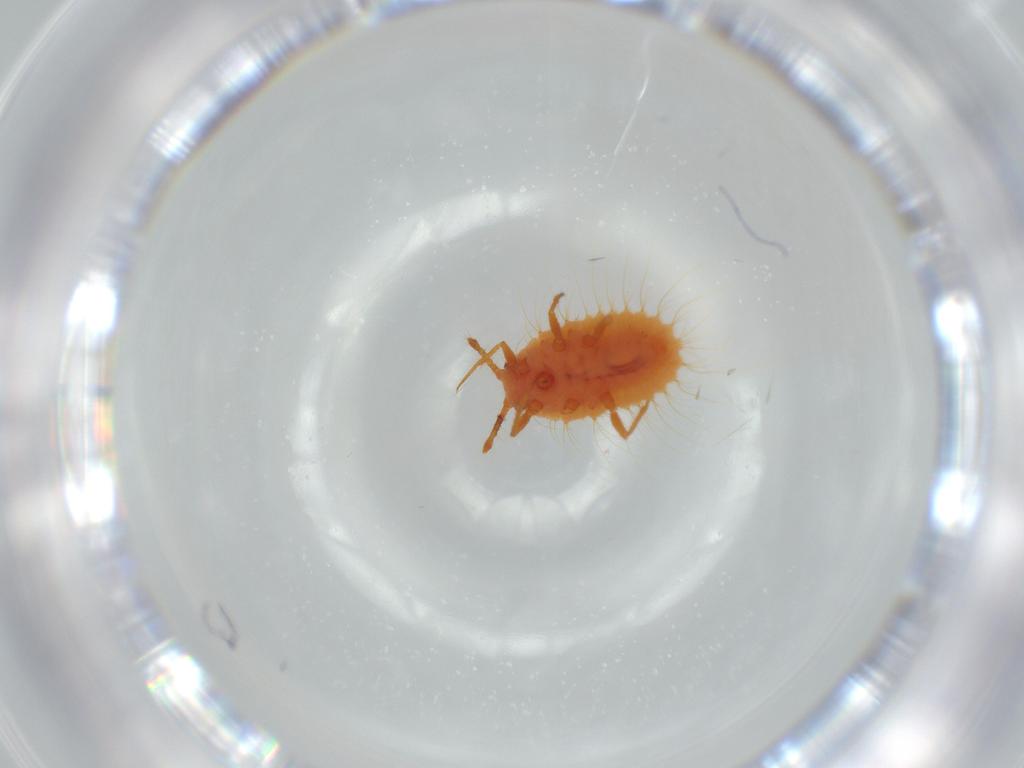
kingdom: Animalia
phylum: Arthropoda
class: Insecta
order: Hemiptera
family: Coccoidea_incertae_sedis
